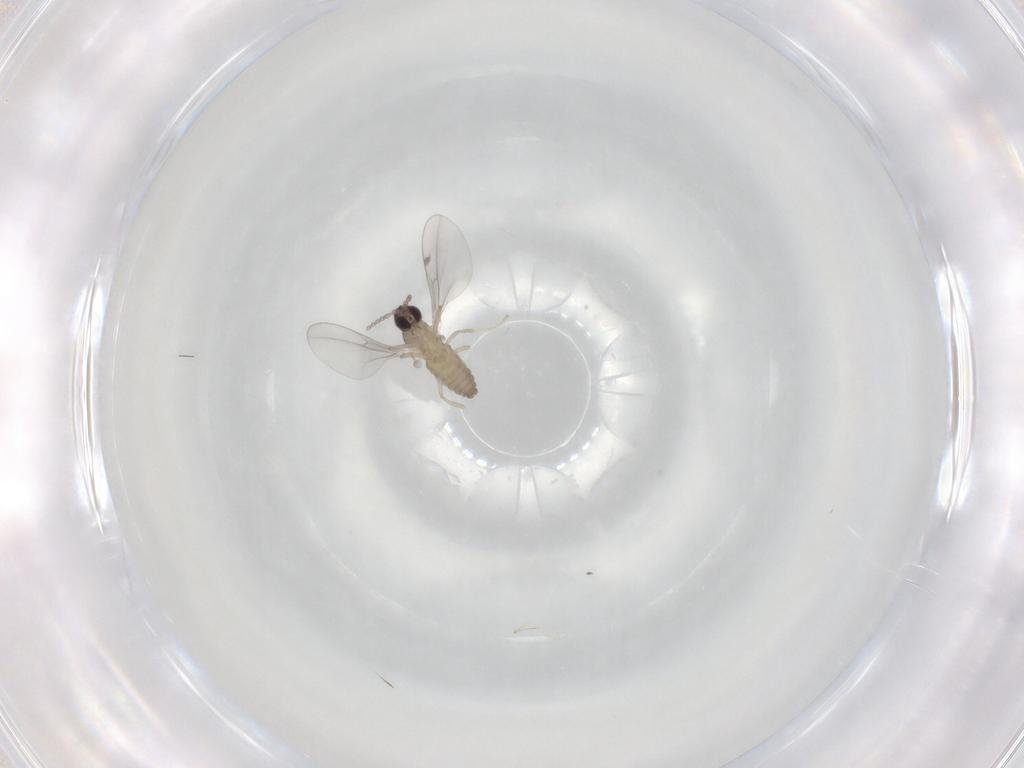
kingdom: Animalia
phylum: Arthropoda
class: Insecta
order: Diptera
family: Cecidomyiidae
